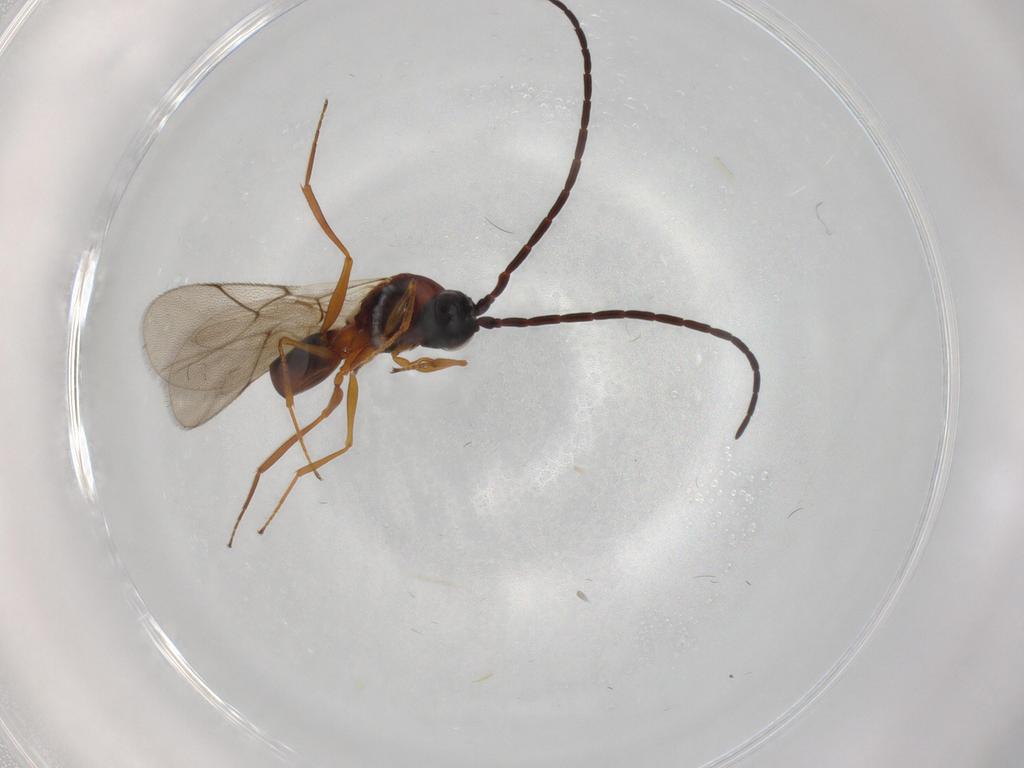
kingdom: Animalia
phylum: Arthropoda
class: Insecta
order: Hymenoptera
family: Figitidae
